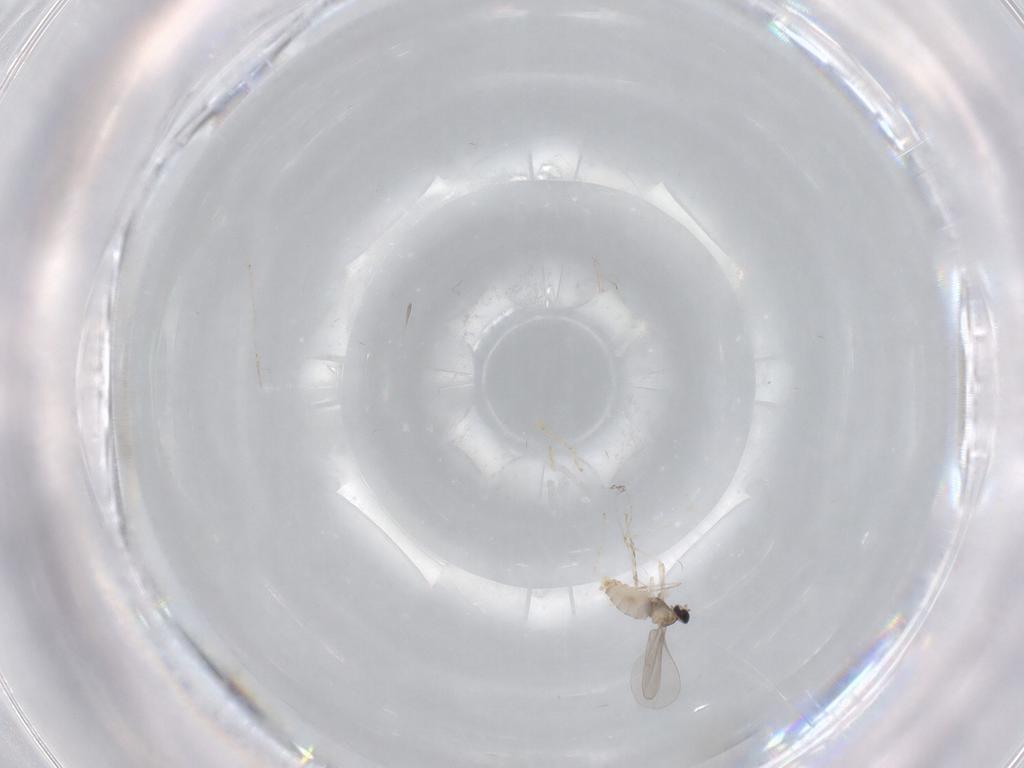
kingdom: Animalia
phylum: Arthropoda
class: Insecta
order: Diptera
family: Cecidomyiidae
